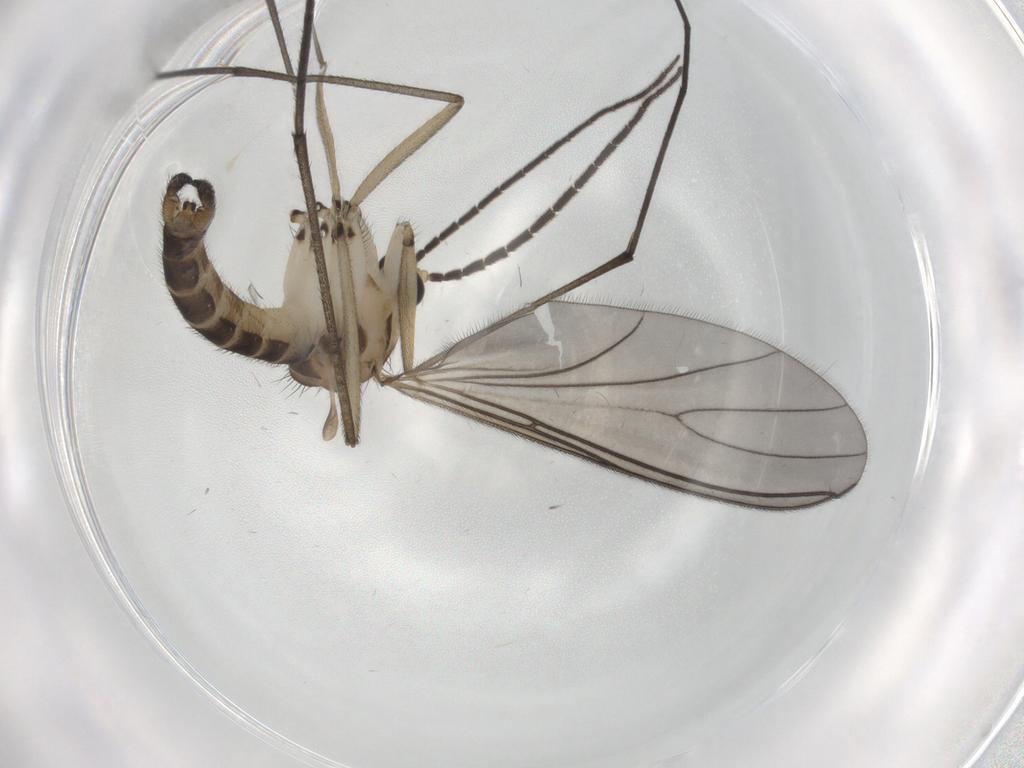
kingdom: Animalia
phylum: Arthropoda
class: Insecta
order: Diptera
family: Sciaridae
